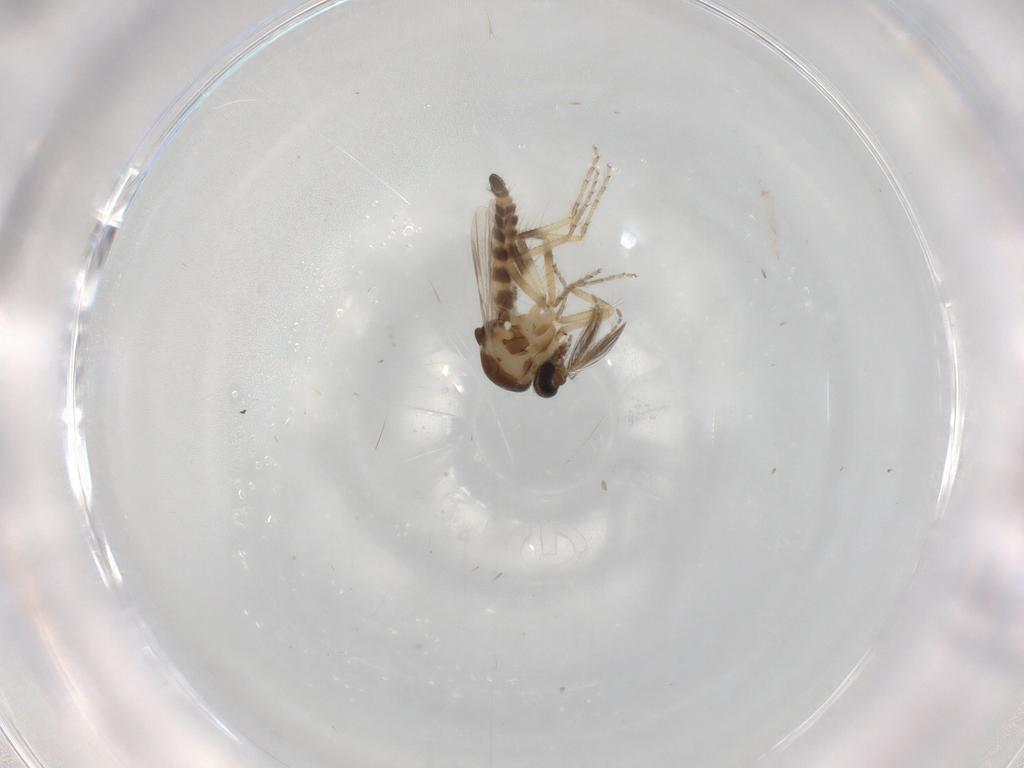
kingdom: Animalia
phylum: Arthropoda
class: Insecta
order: Diptera
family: Ceratopogonidae
